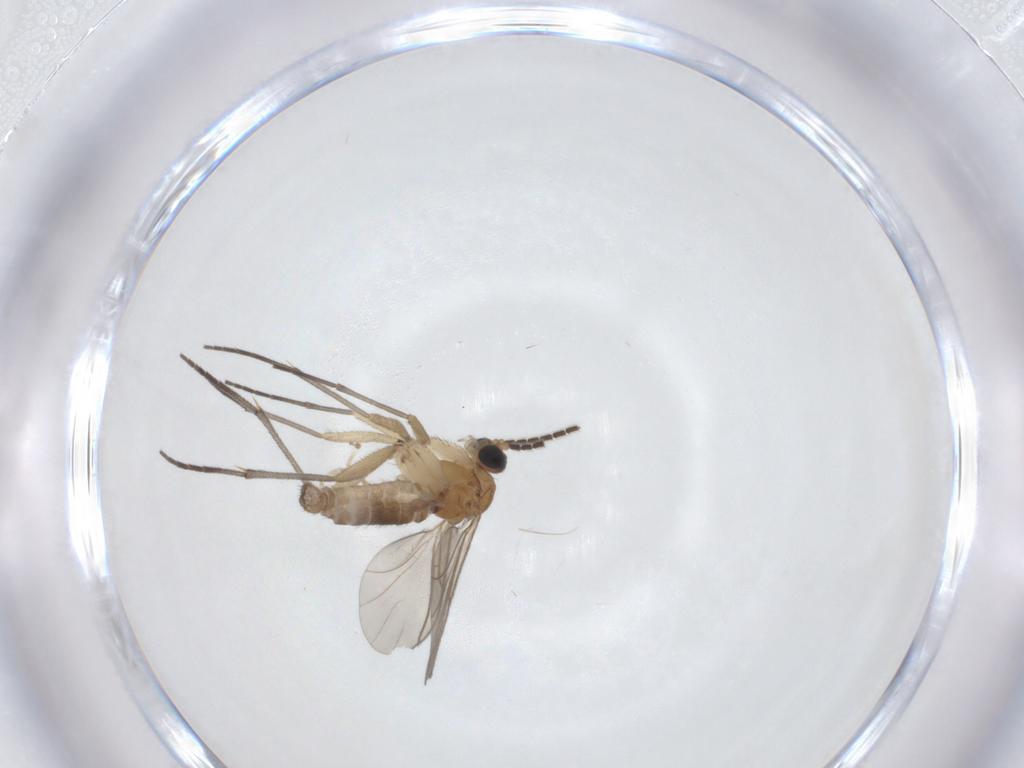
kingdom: Animalia
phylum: Arthropoda
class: Insecta
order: Diptera
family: Sciaridae
